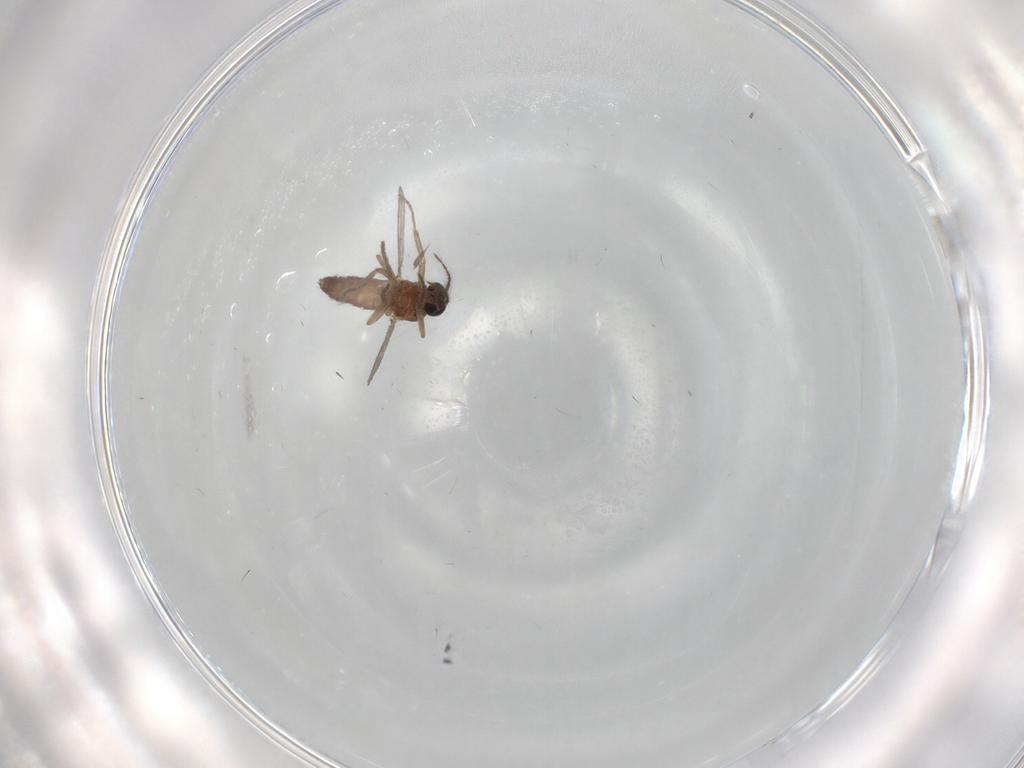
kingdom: Animalia
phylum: Arthropoda
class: Insecta
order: Diptera
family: Ceratopogonidae
